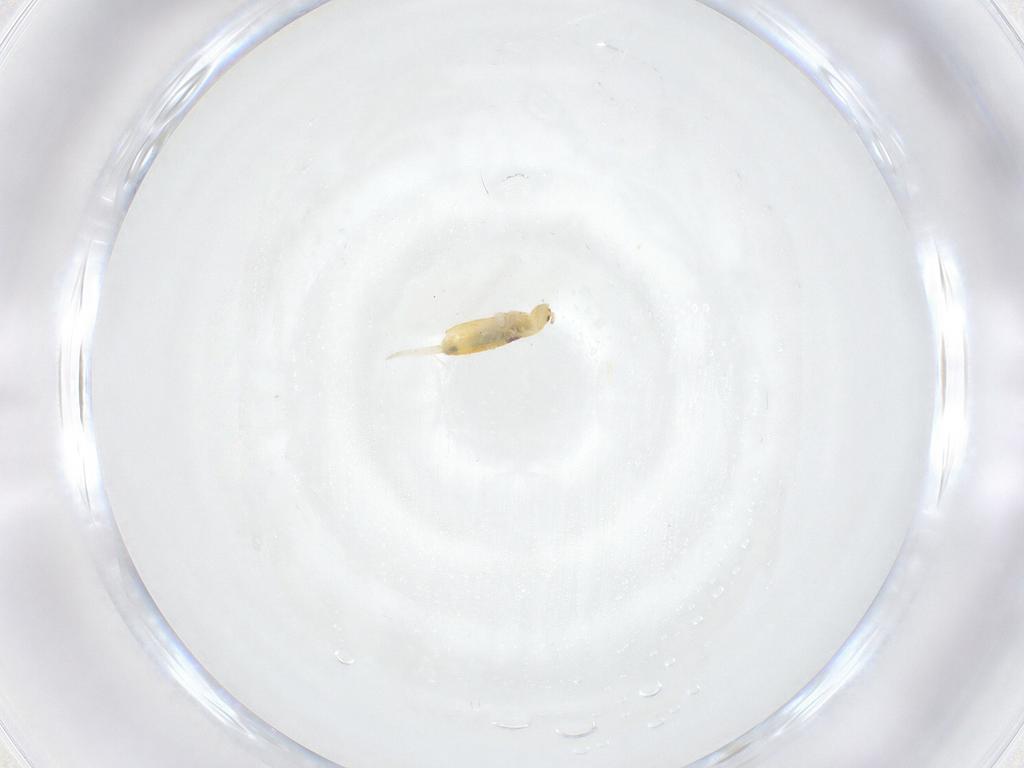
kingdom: Animalia
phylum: Arthropoda
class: Collembola
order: Entomobryomorpha
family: Entomobryidae
